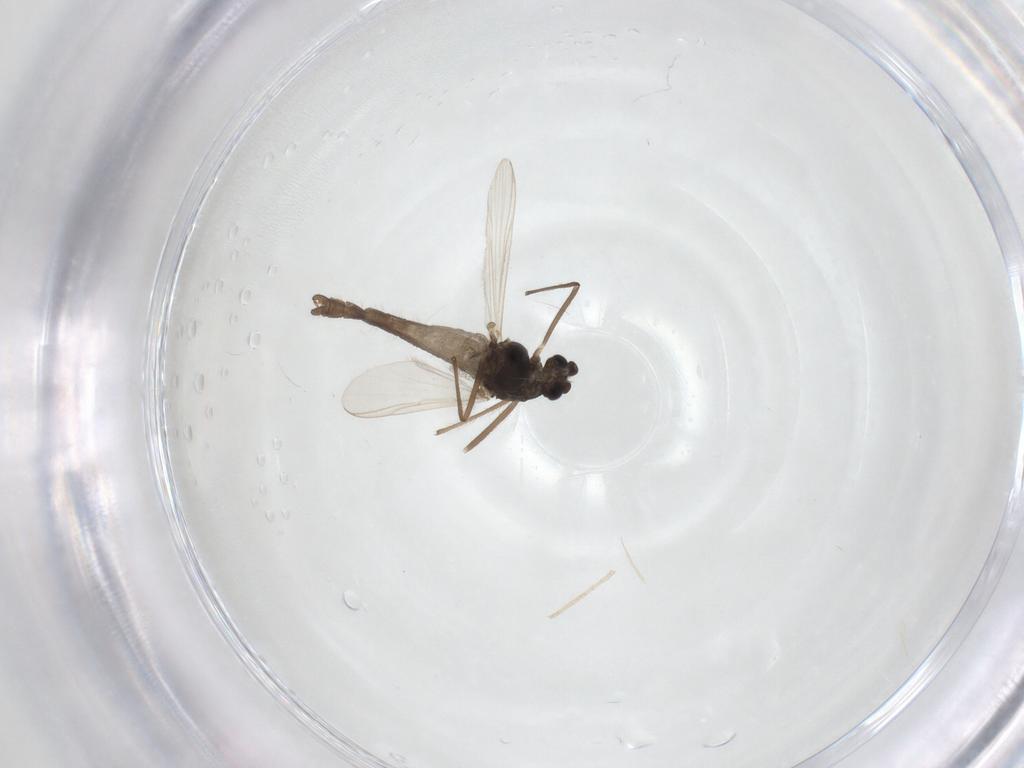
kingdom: Animalia
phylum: Arthropoda
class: Insecta
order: Diptera
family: Chironomidae
